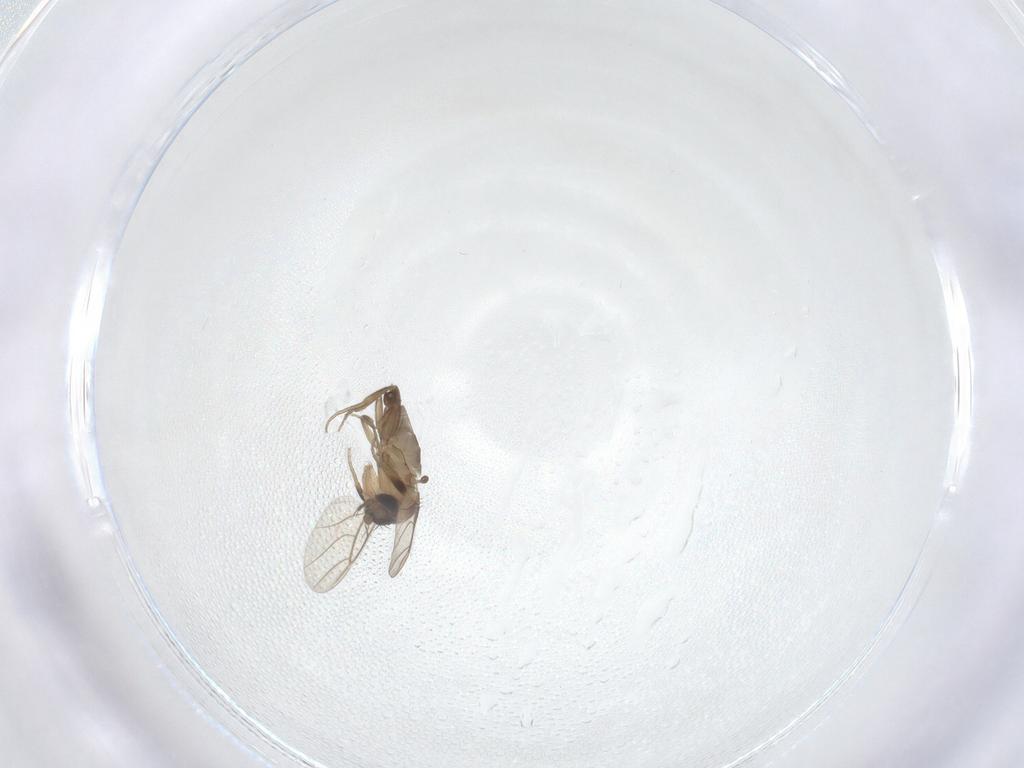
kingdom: Animalia
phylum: Arthropoda
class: Insecta
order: Diptera
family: Phoridae
